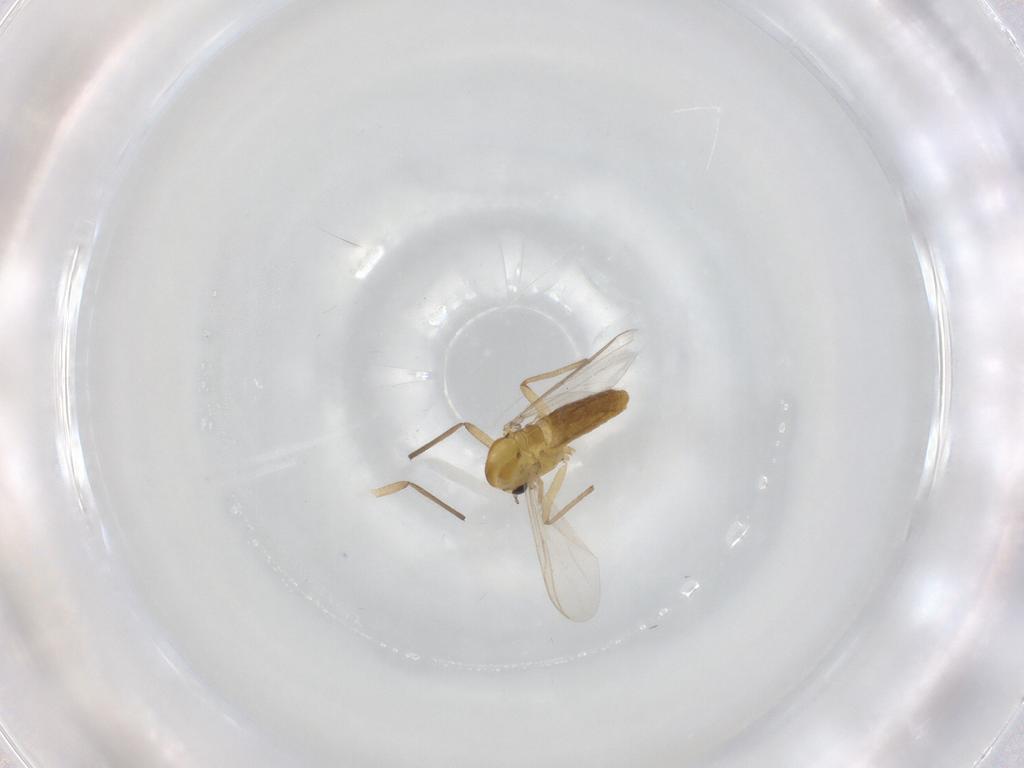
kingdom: Animalia
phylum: Arthropoda
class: Insecta
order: Diptera
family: Chironomidae
